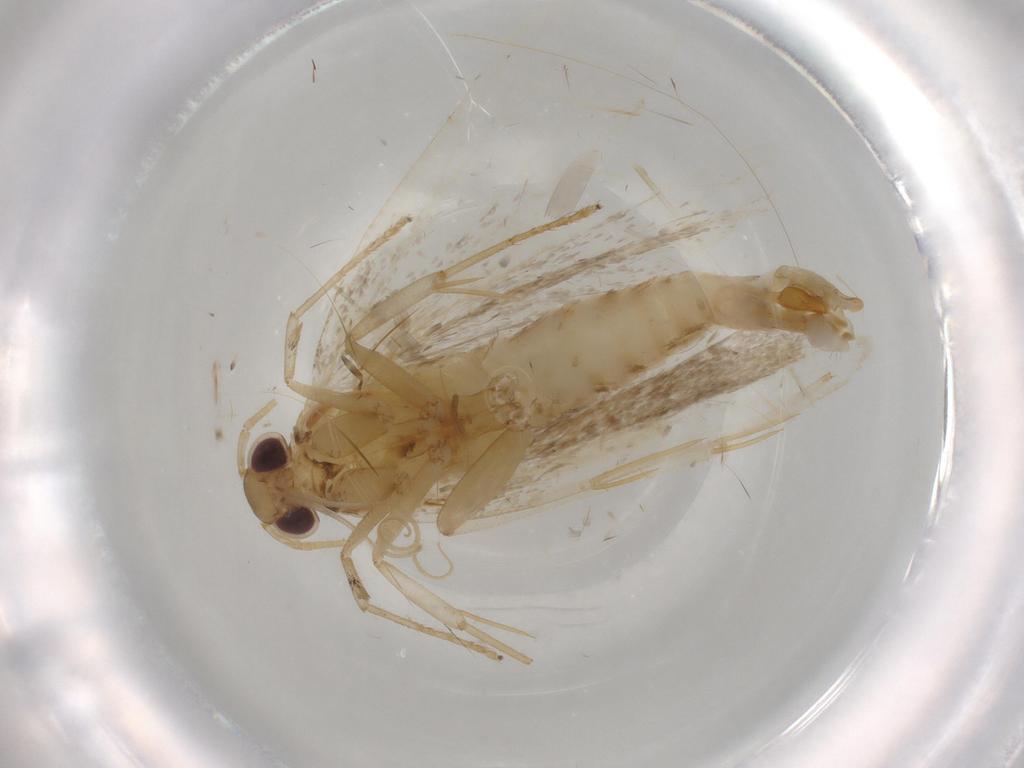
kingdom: Animalia
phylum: Arthropoda
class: Insecta
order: Lepidoptera
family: Gelechiidae
